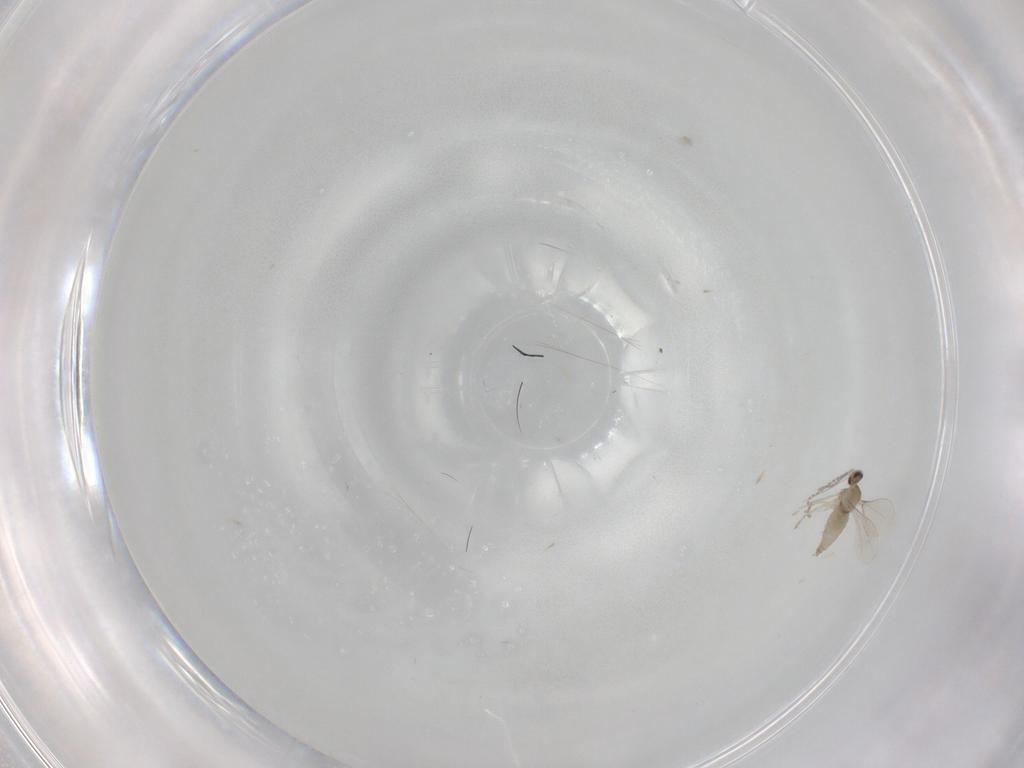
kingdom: Animalia
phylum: Arthropoda
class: Insecta
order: Diptera
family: Cecidomyiidae
